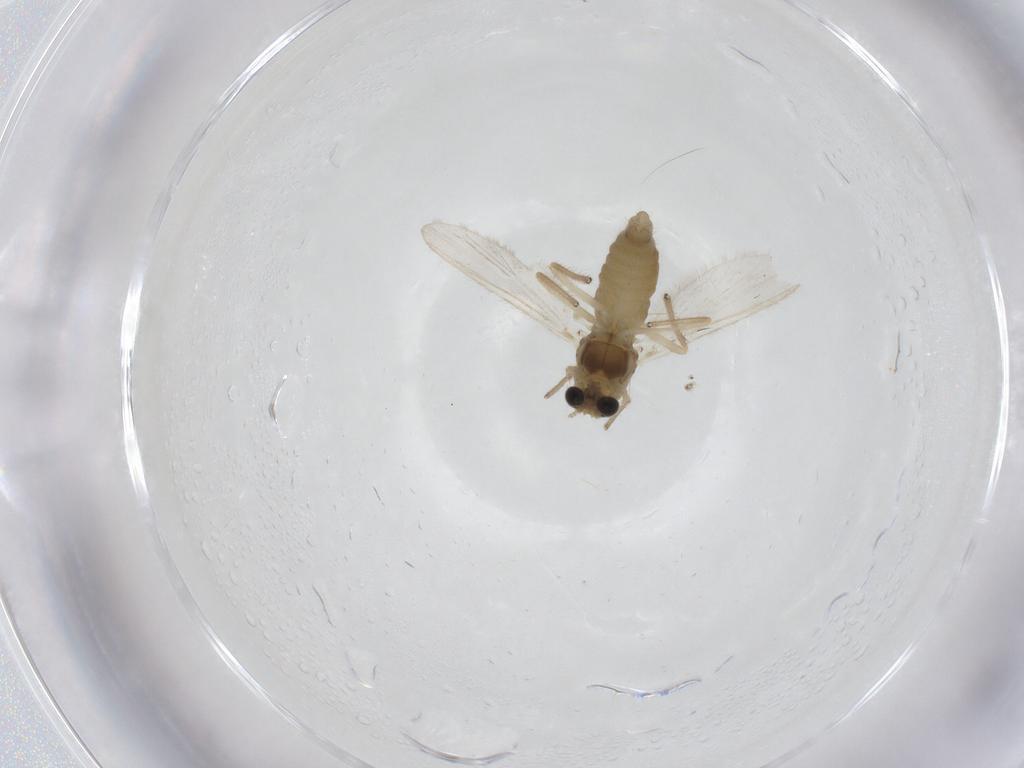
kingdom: Animalia
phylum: Arthropoda
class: Insecta
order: Diptera
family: Chironomidae
